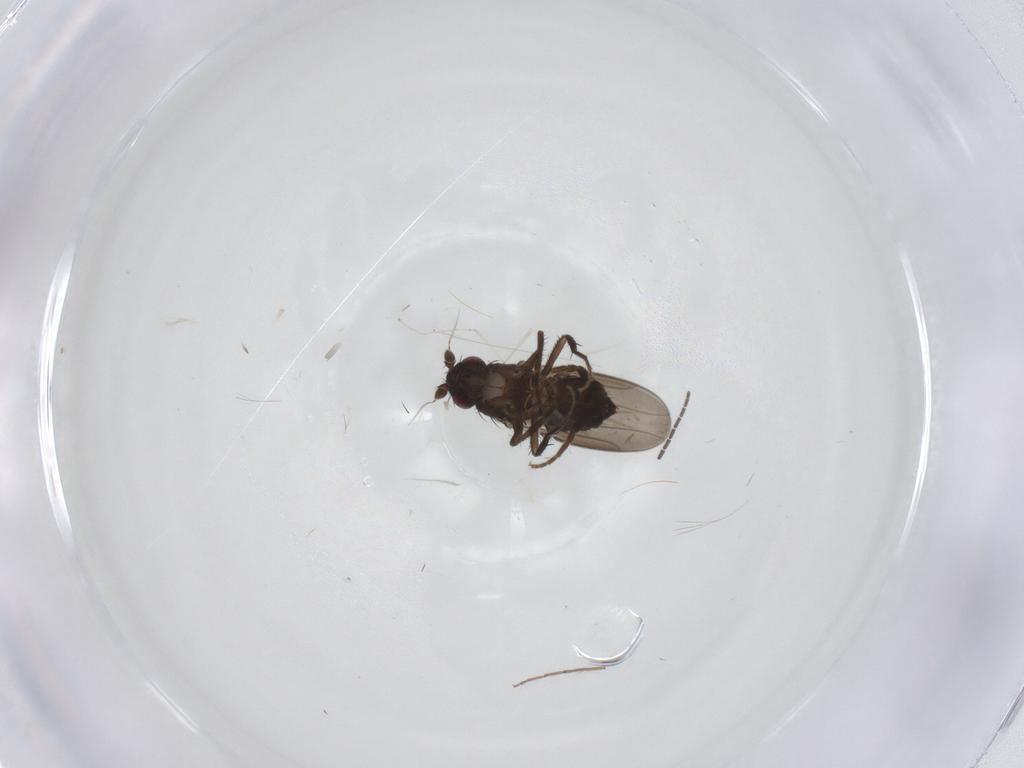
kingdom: Animalia
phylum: Arthropoda
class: Insecta
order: Diptera
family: Sphaeroceridae
